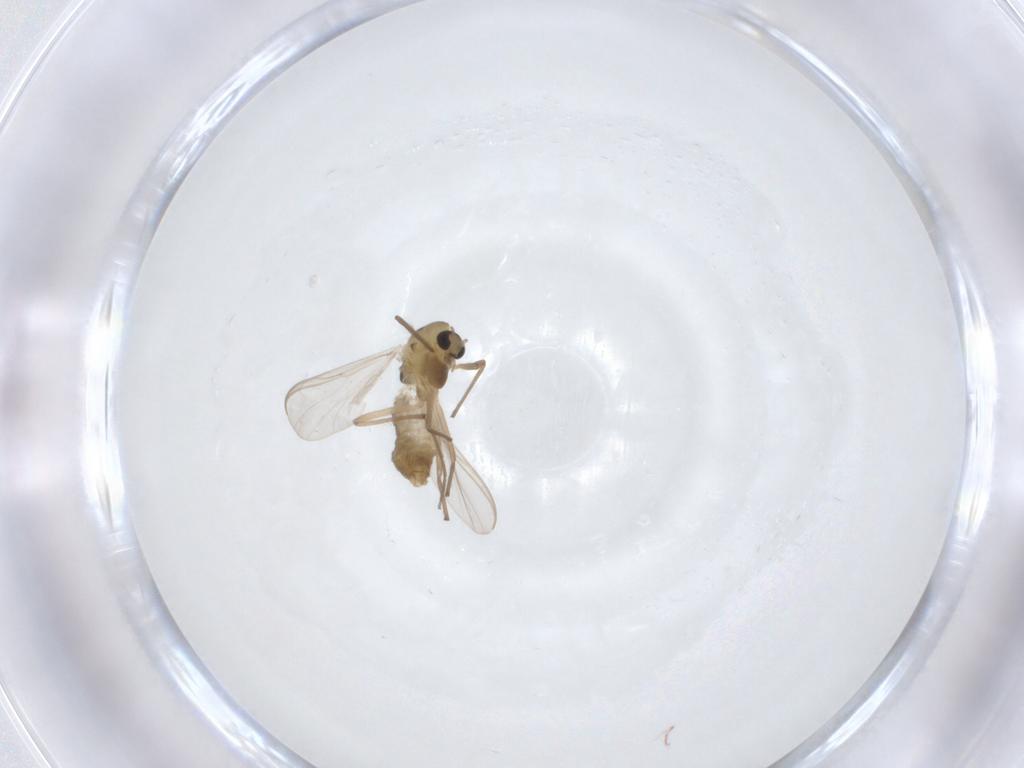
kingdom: Animalia
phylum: Arthropoda
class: Insecta
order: Diptera
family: Chironomidae
